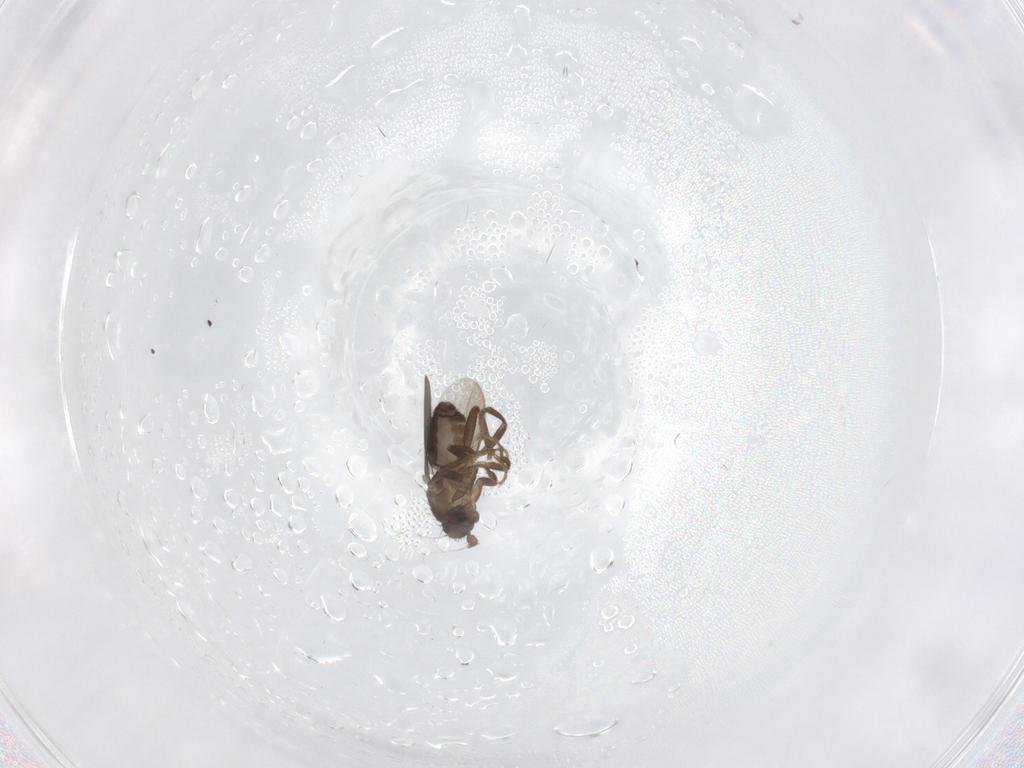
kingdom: Animalia
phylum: Arthropoda
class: Insecta
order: Diptera
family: Sphaeroceridae
